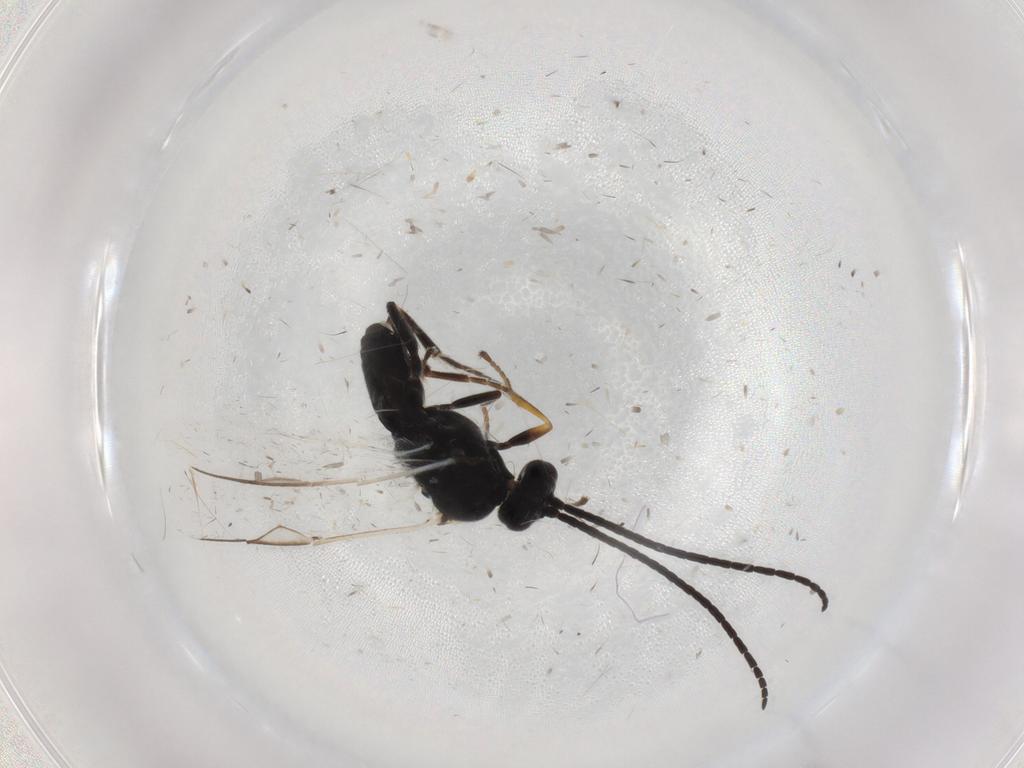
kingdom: Animalia
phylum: Arthropoda
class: Insecta
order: Hymenoptera
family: Braconidae
